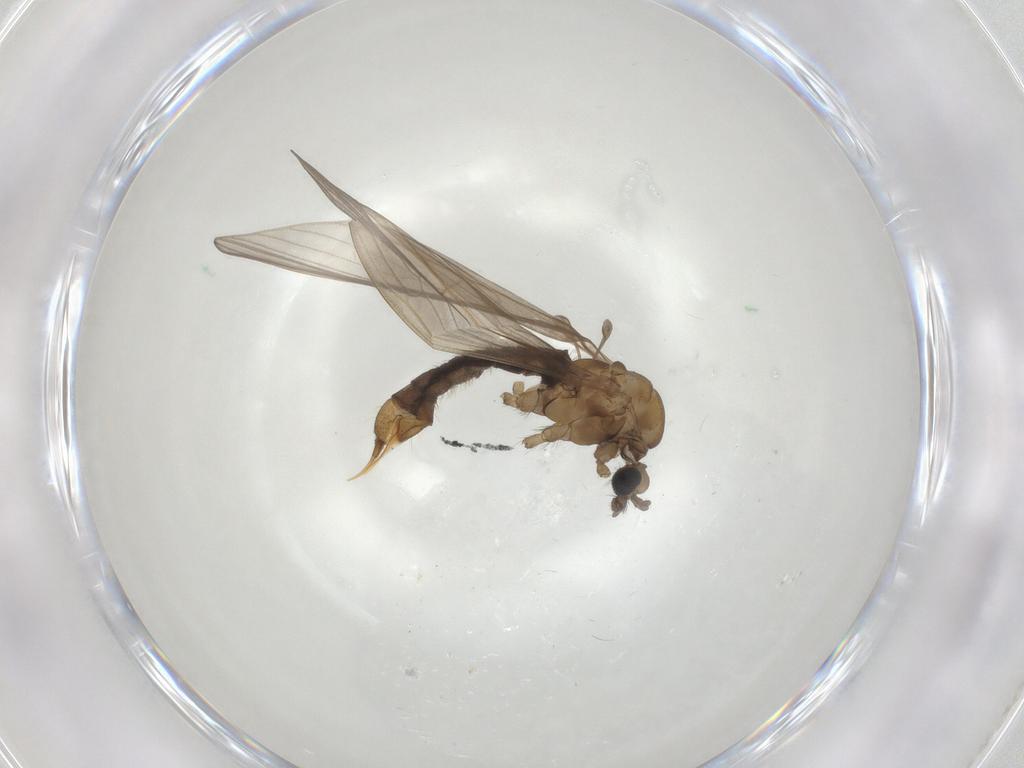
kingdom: Animalia
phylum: Arthropoda
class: Insecta
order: Diptera
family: Limoniidae
